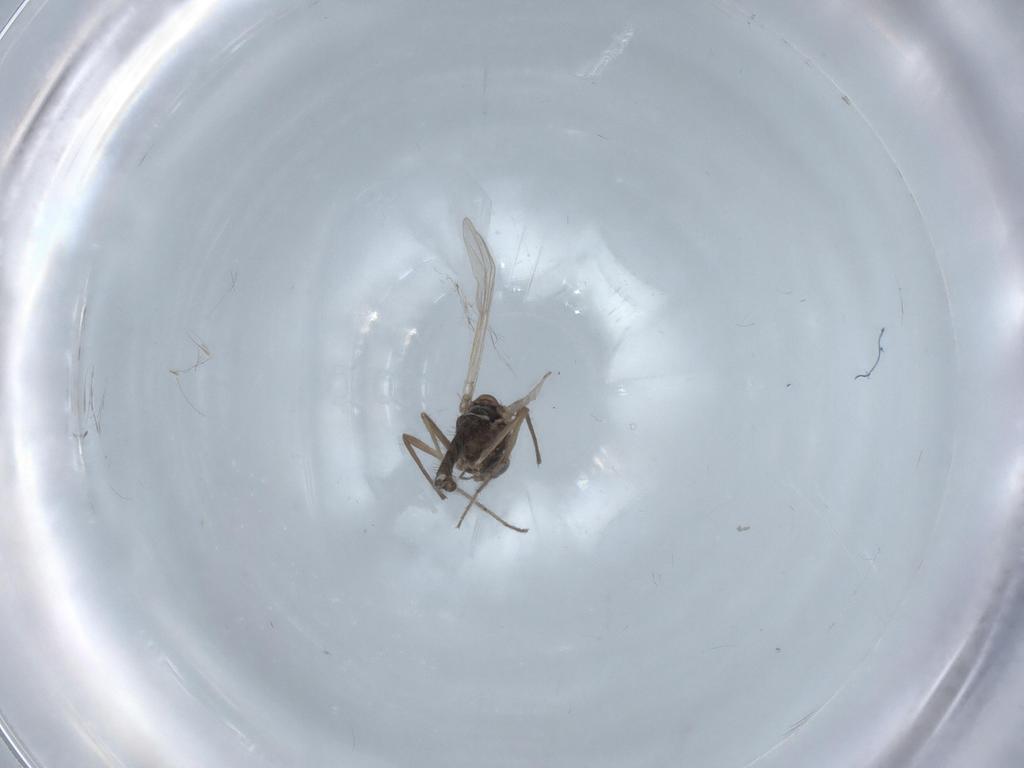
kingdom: Animalia
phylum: Arthropoda
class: Insecta
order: Diptera
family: Chironomidae
